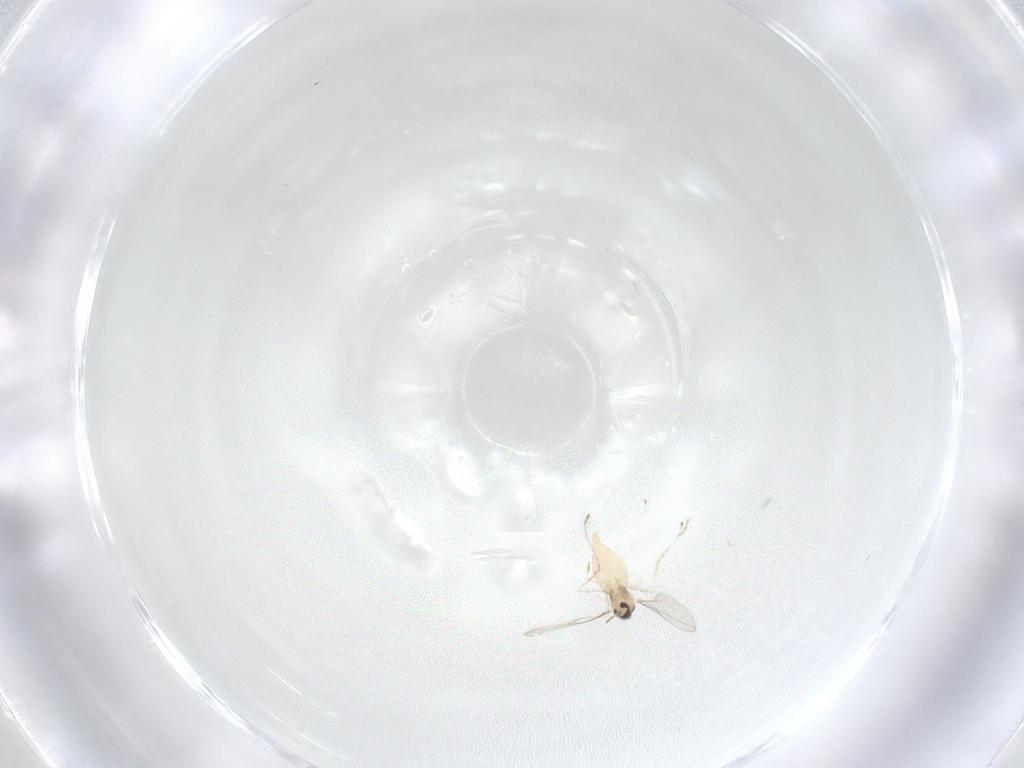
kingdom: Animalia
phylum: Arthropoda
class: Insecta
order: Diptera
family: Cecidomyiidae
